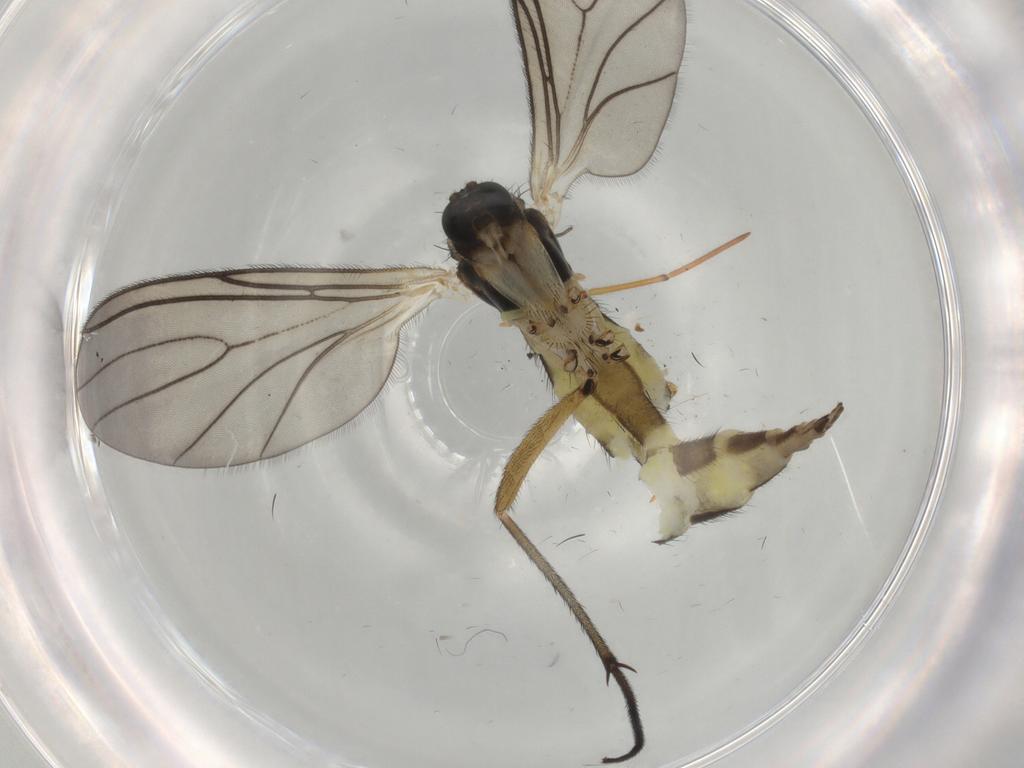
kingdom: Animalia
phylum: Arthropoda
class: Insecta
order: Diptera
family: Sciaridae
